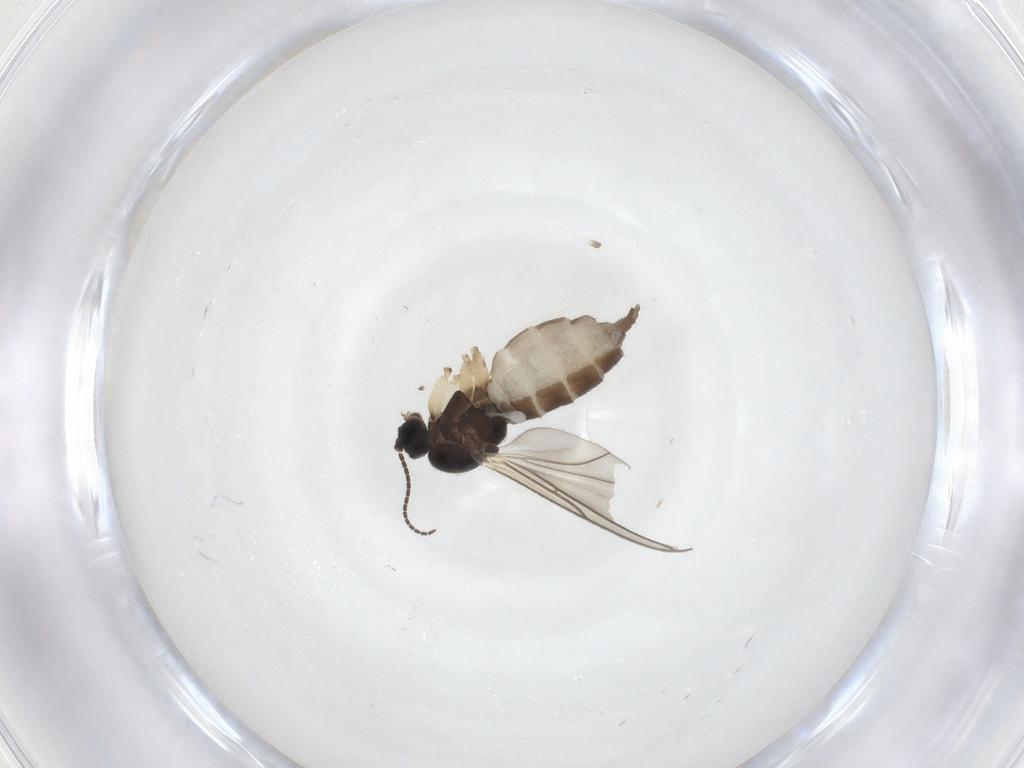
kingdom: Animalia
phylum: Arthropoda
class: Insecta
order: Diptera
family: Sciaridae
